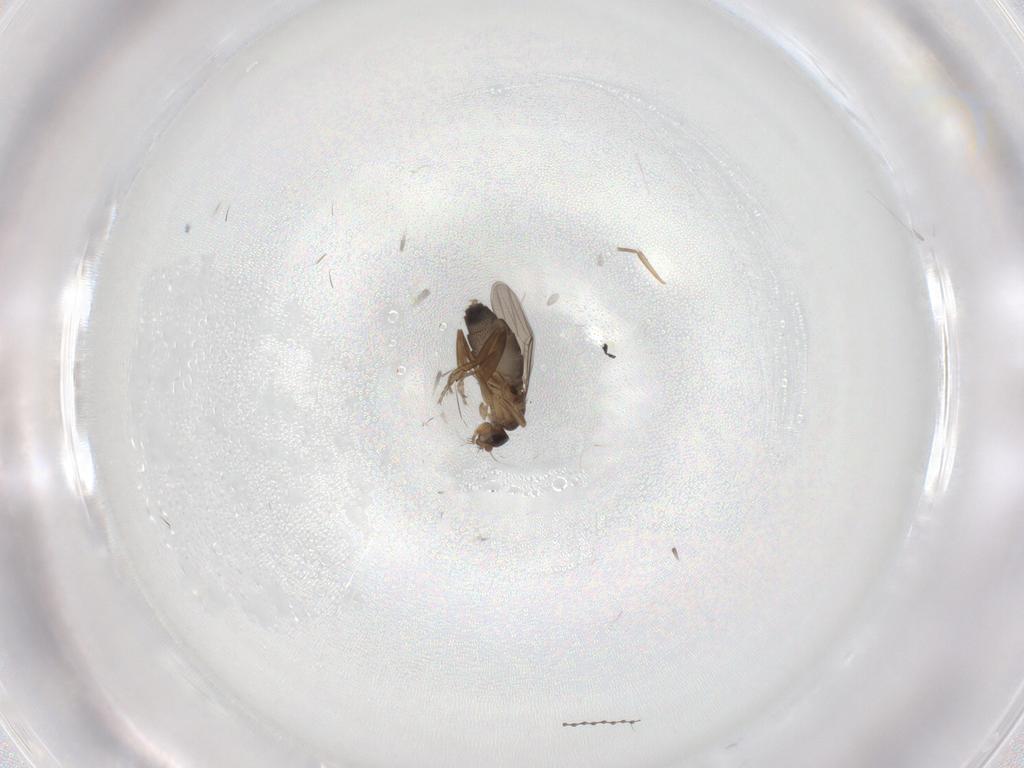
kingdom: Animalia
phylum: Arthropoda
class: Insecta
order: Diptera
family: Phoridae
